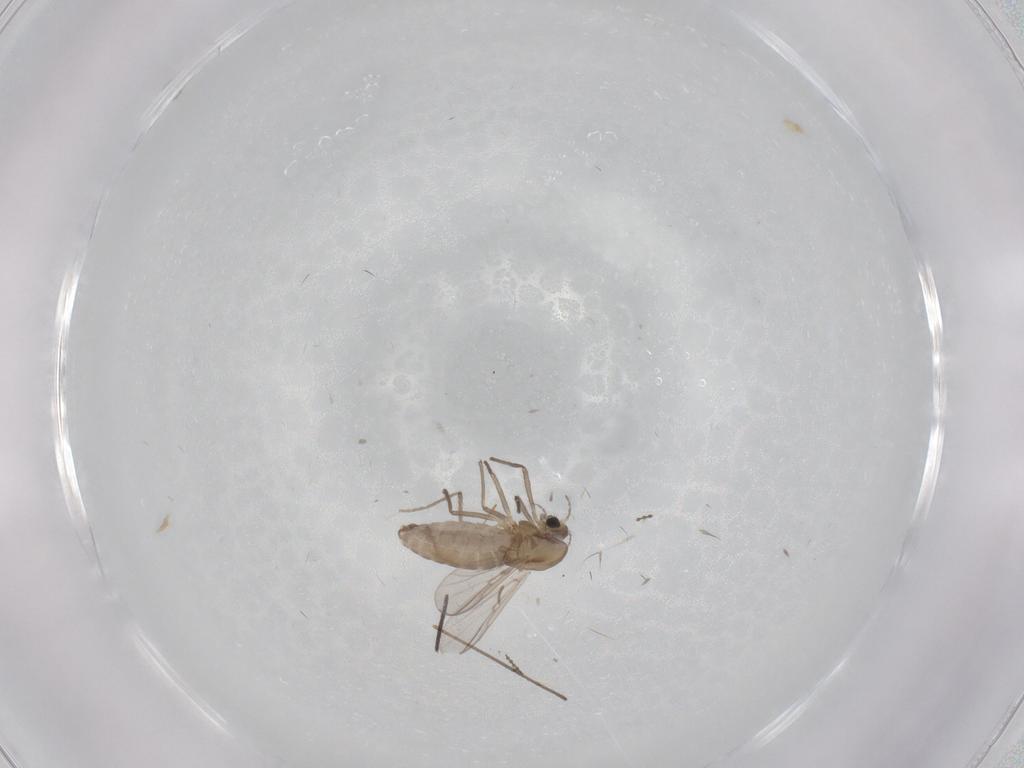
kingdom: Animalia
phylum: Arthropoda
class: Insecta
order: Diptera
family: Chironomidae
